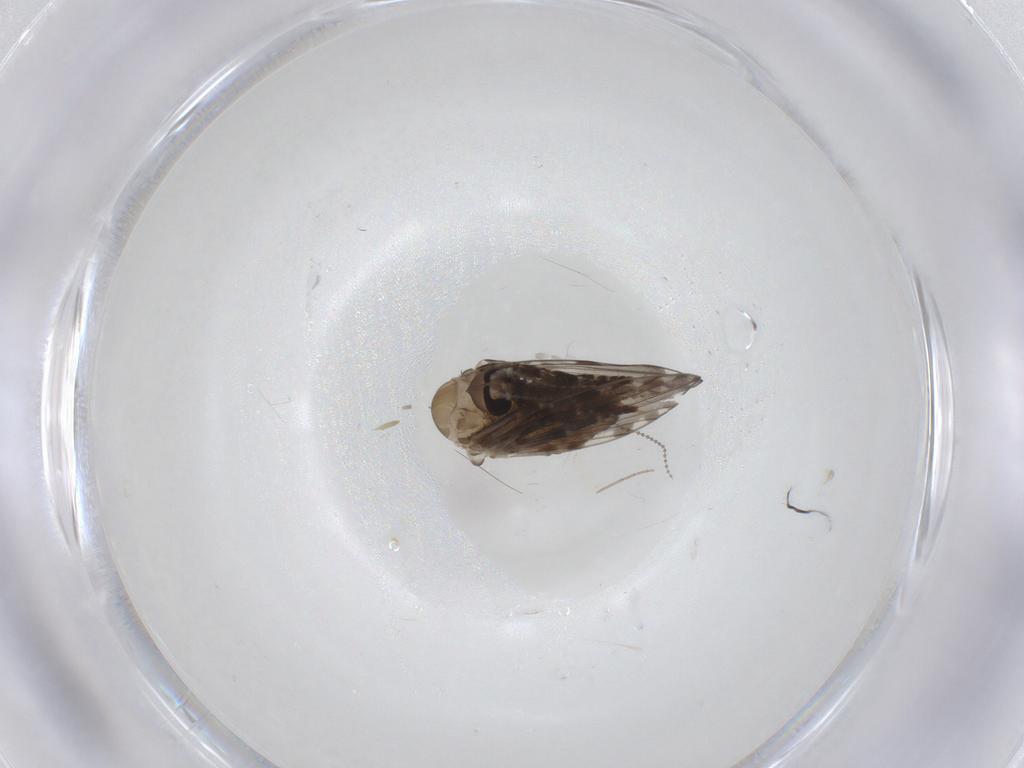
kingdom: Animalia
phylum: Arthropoda
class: Insecta
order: Diptera
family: Psychodidae
